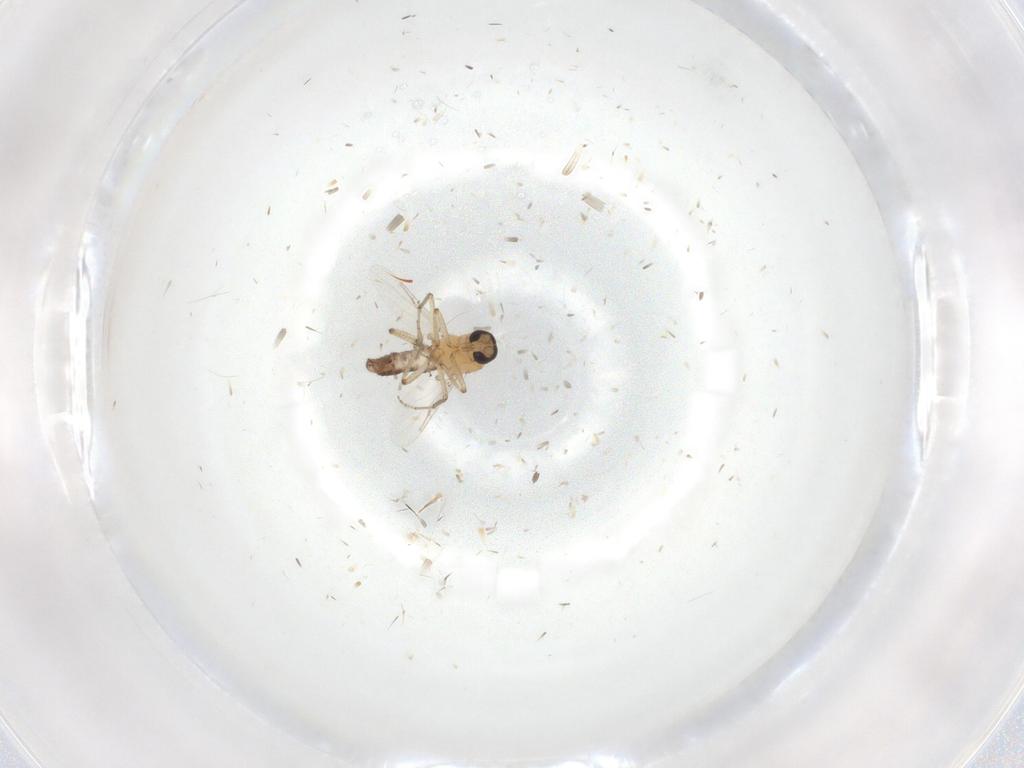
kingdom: Animalia
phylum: Arthropoda
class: Insecta
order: Diptera
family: Ceratopogonidae
